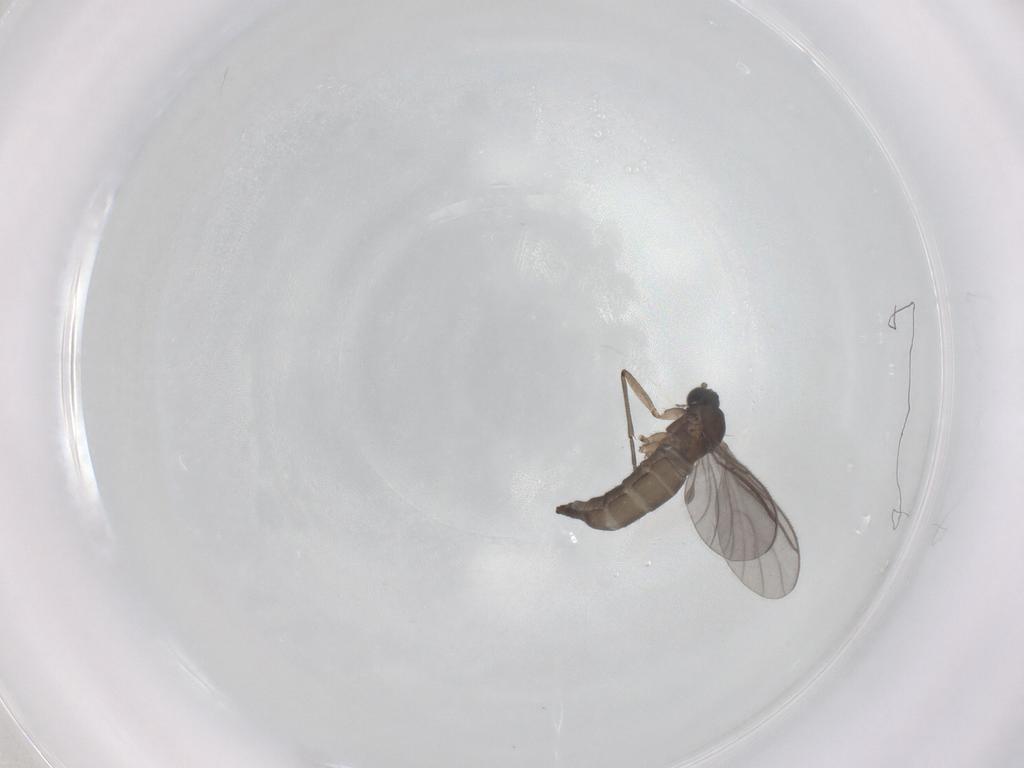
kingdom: Animalia
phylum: Arthropoda
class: Insecta
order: Diptera
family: Sciaridae
